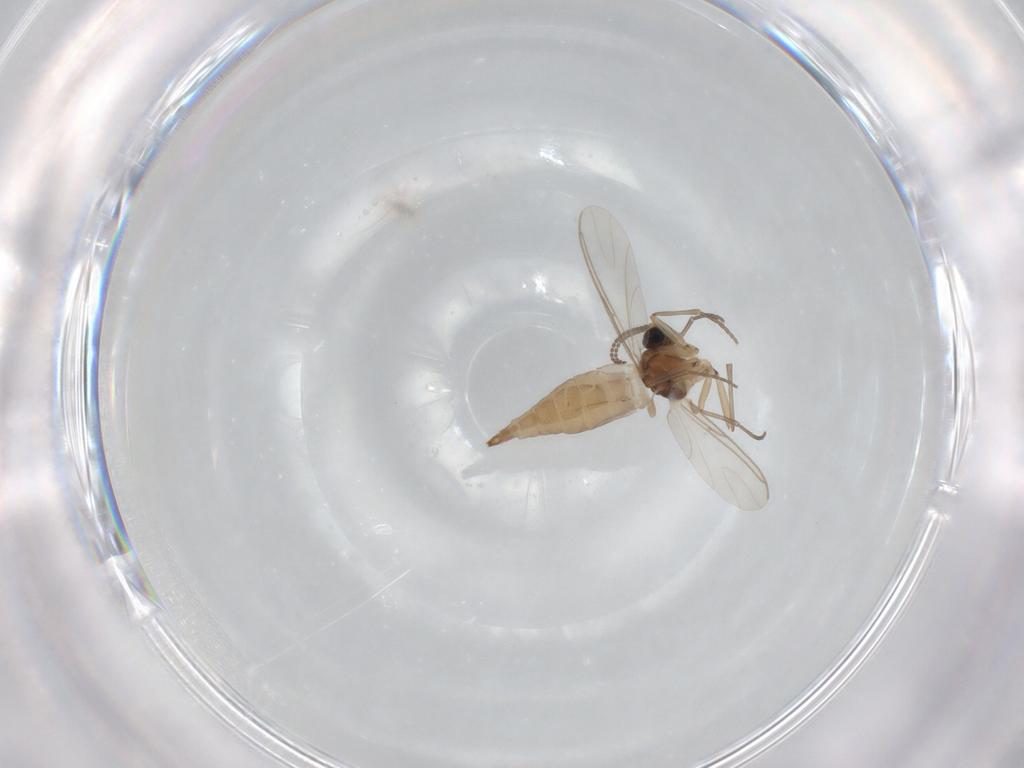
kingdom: Animalia
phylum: Arthropoda
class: Insecta
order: Diptera
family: Sciaridae
